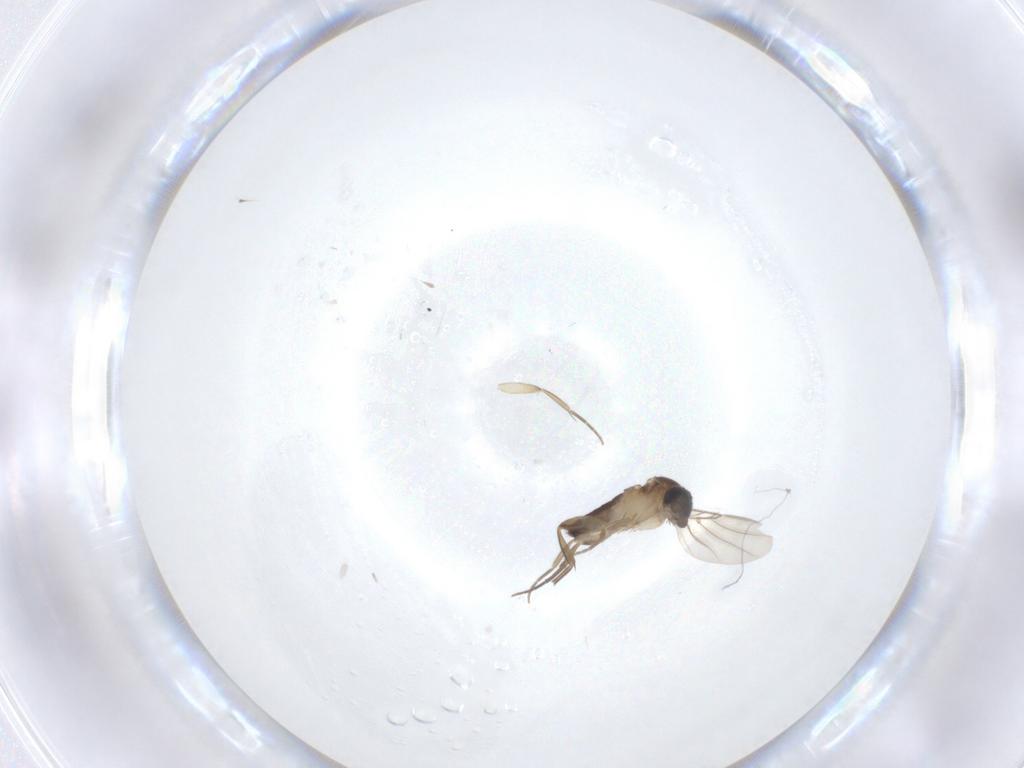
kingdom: Animalia
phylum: Arthropoda
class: Insecta
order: Diptera
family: Phoridae
